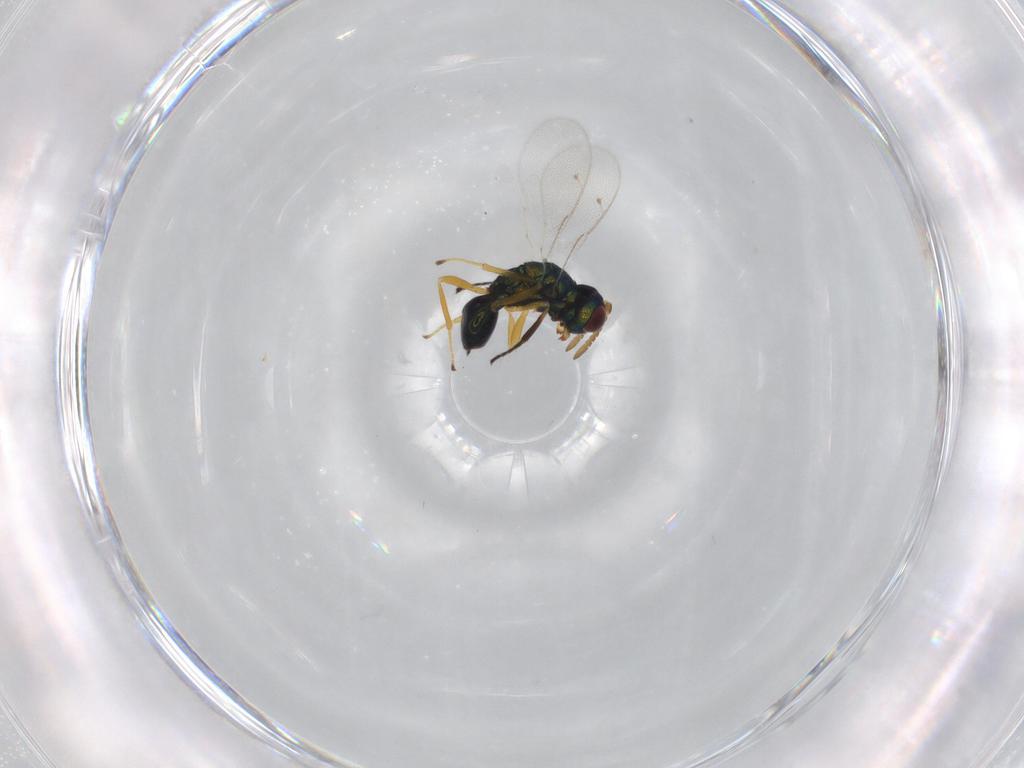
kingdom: Animalia
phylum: Arthropoda
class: Insecta
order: Hymenoptera
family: Braconidae
